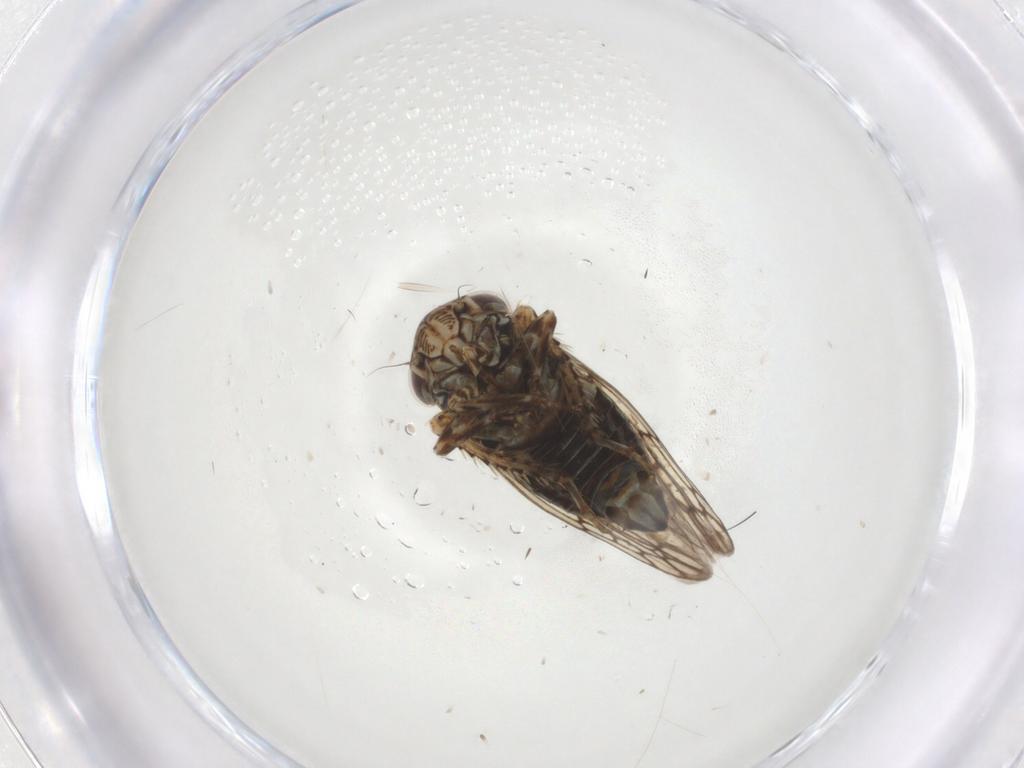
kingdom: Animalia
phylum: Arthropoda
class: Insecta
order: Hemiptera
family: Cicadellidae
